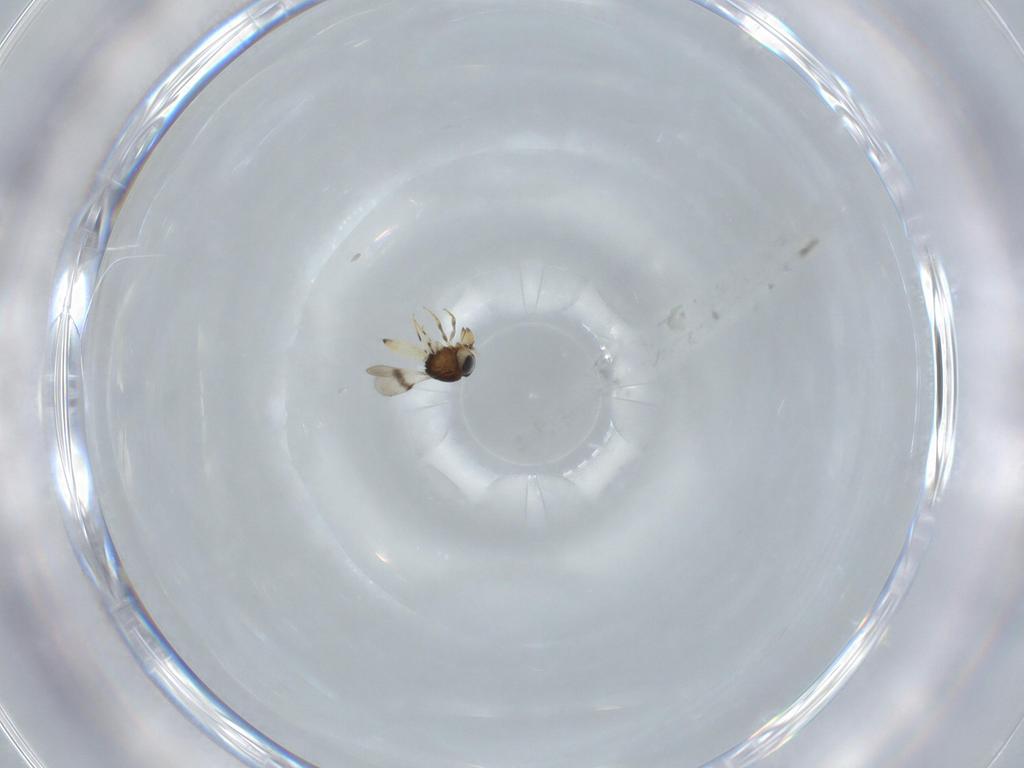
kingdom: Animalia
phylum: Arthropoda
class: Insecta
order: Hymenoptera
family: Scelionidae
